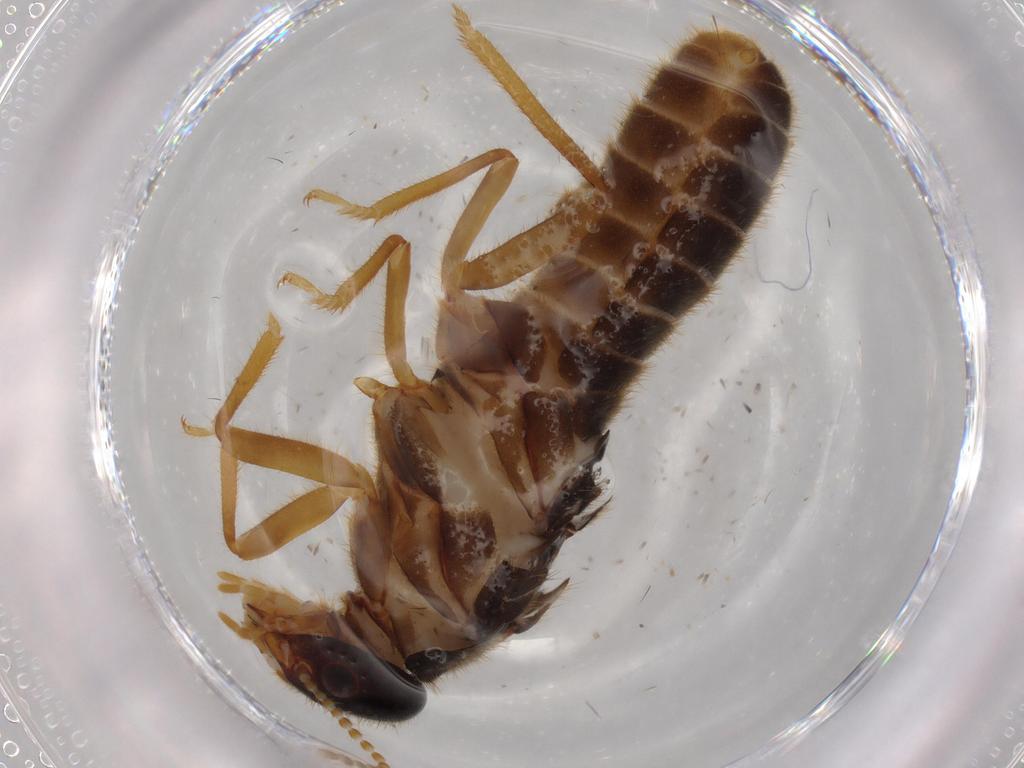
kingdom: Animalia
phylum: Arthropoda
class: Insecta
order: Blattodea
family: Termitidae
